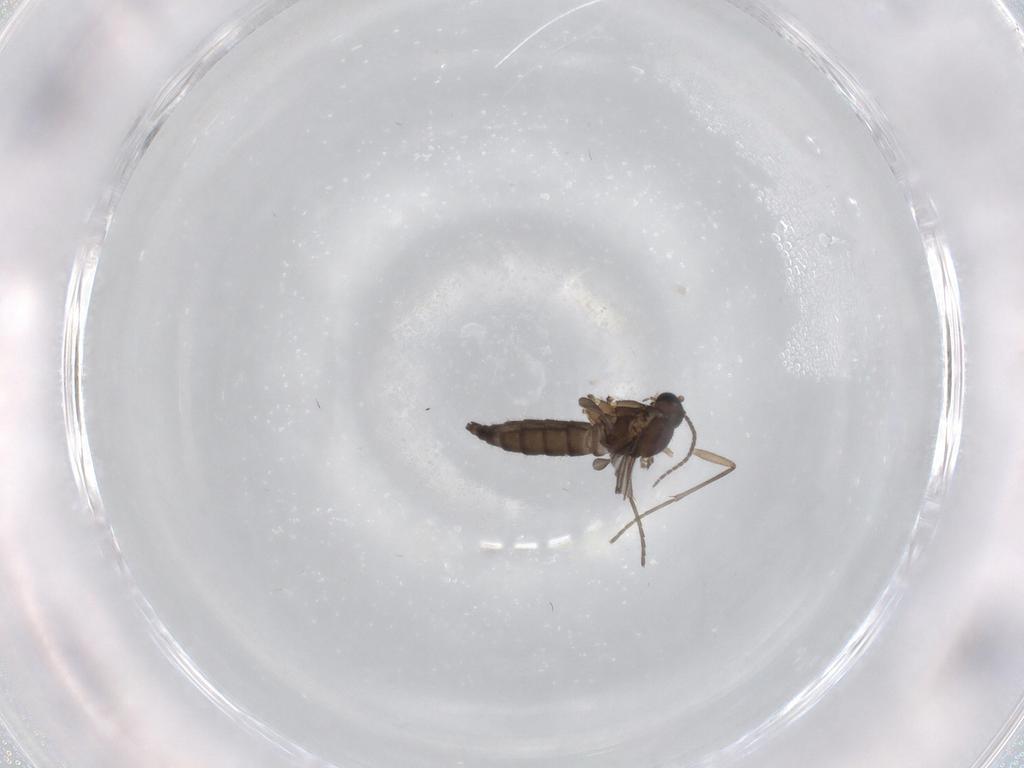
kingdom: Animalia
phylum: Arthropoda
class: Insecta
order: Diptera
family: Sciaridae
